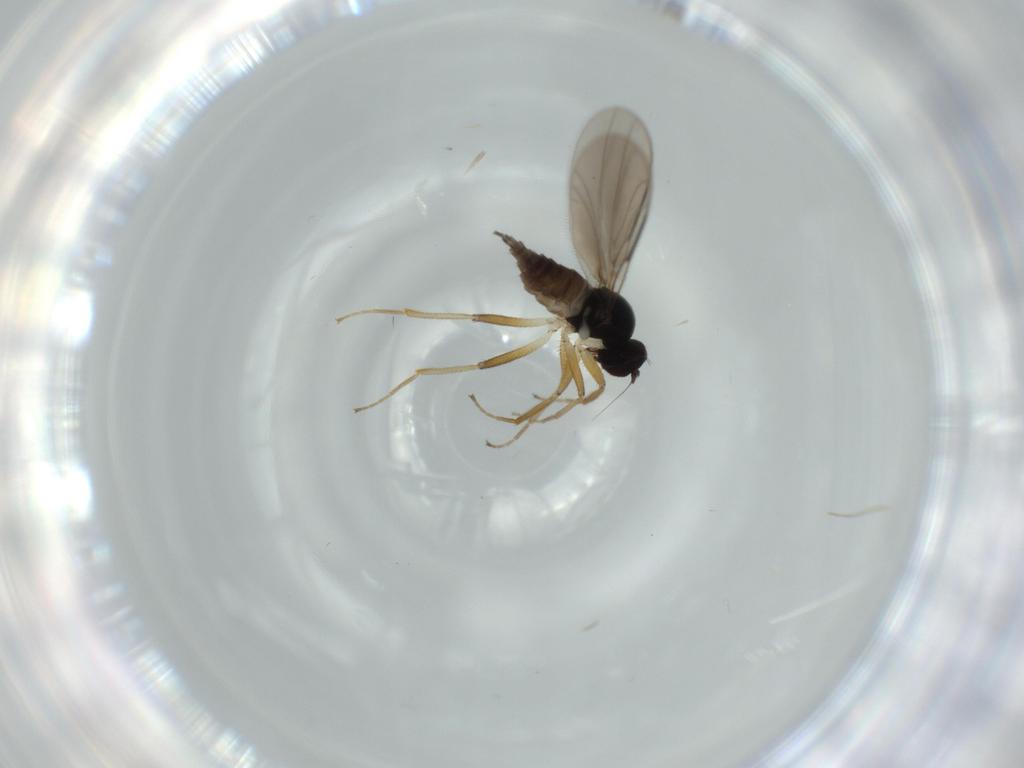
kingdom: Animalia
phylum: Arthropoda
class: Insecta
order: Diptera
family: Hybotidae
